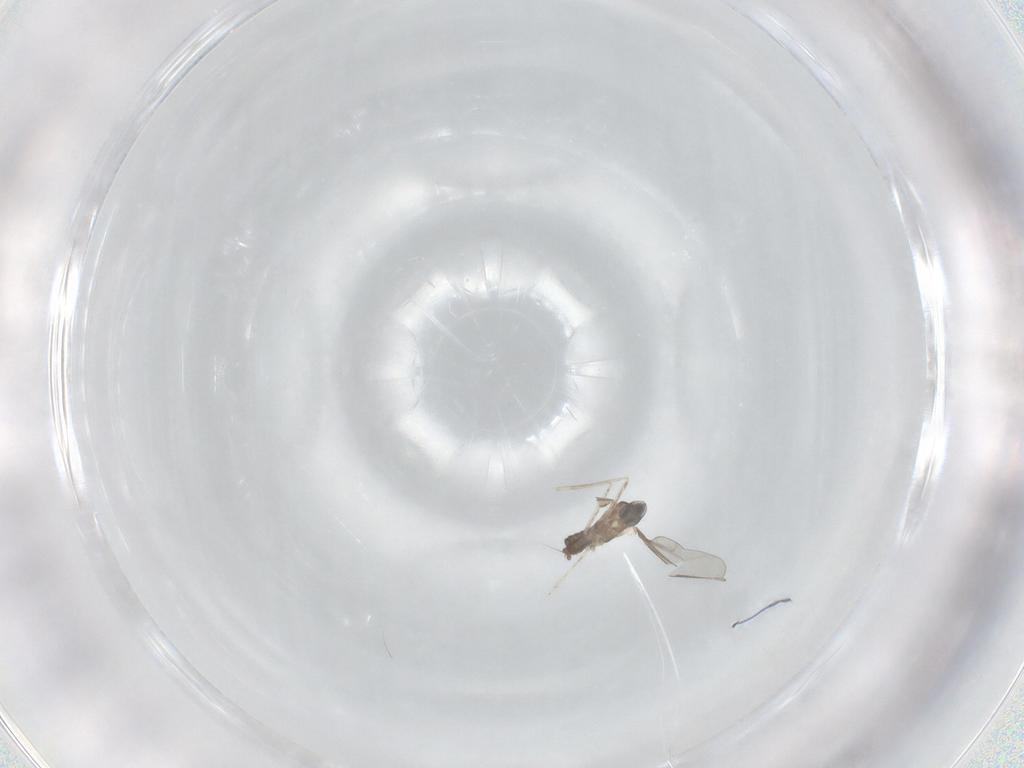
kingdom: Animalia
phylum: Arthropoda
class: Insecta
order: Diptera
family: Cecidomyiidae
